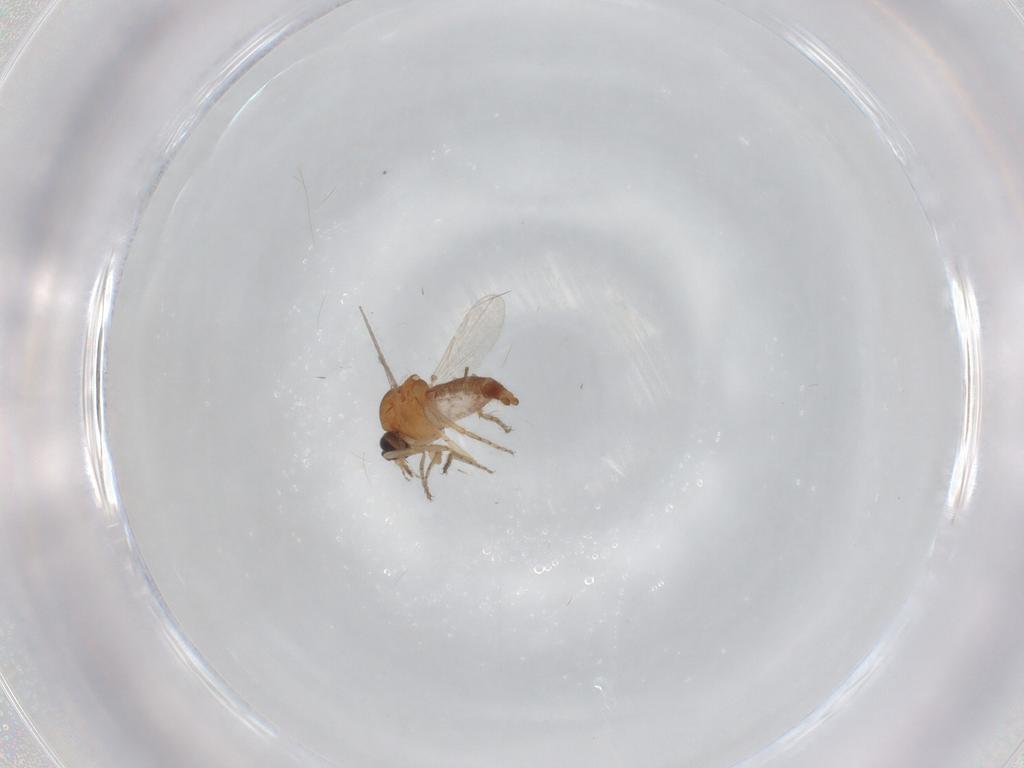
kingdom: Animalia
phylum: Arthropoda
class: Insecta
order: Diptera
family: Ceratopogonidae
